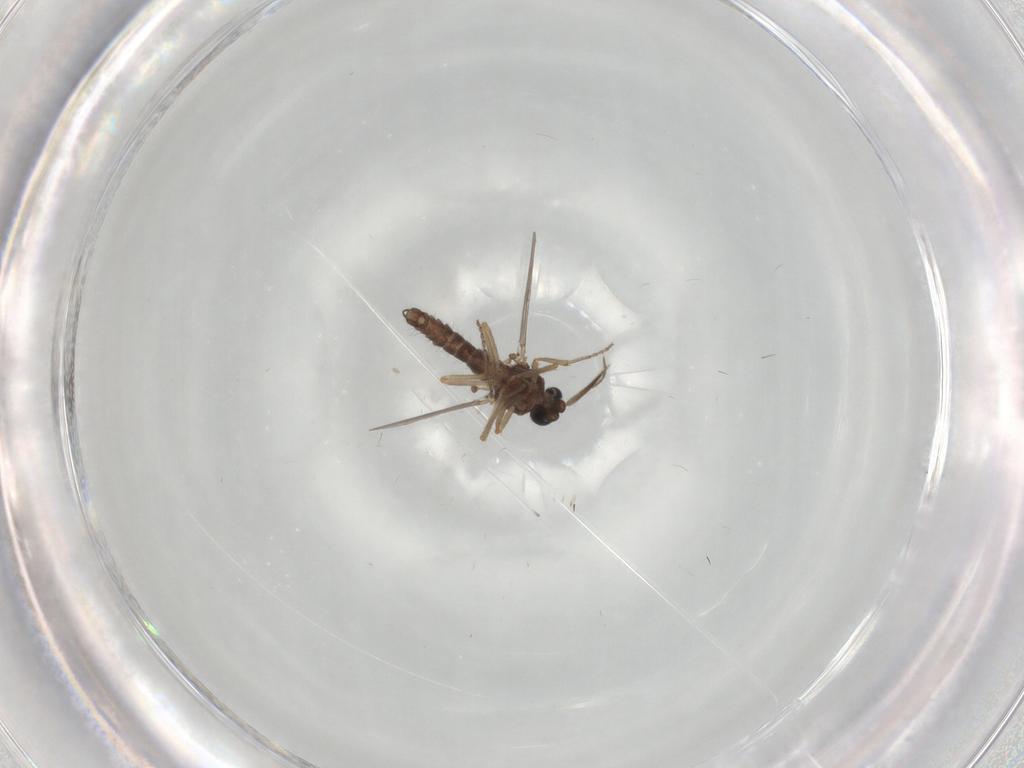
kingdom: Animalia
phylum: Arthropoda
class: Insecta
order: Diptera
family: Ceratopogonidae
